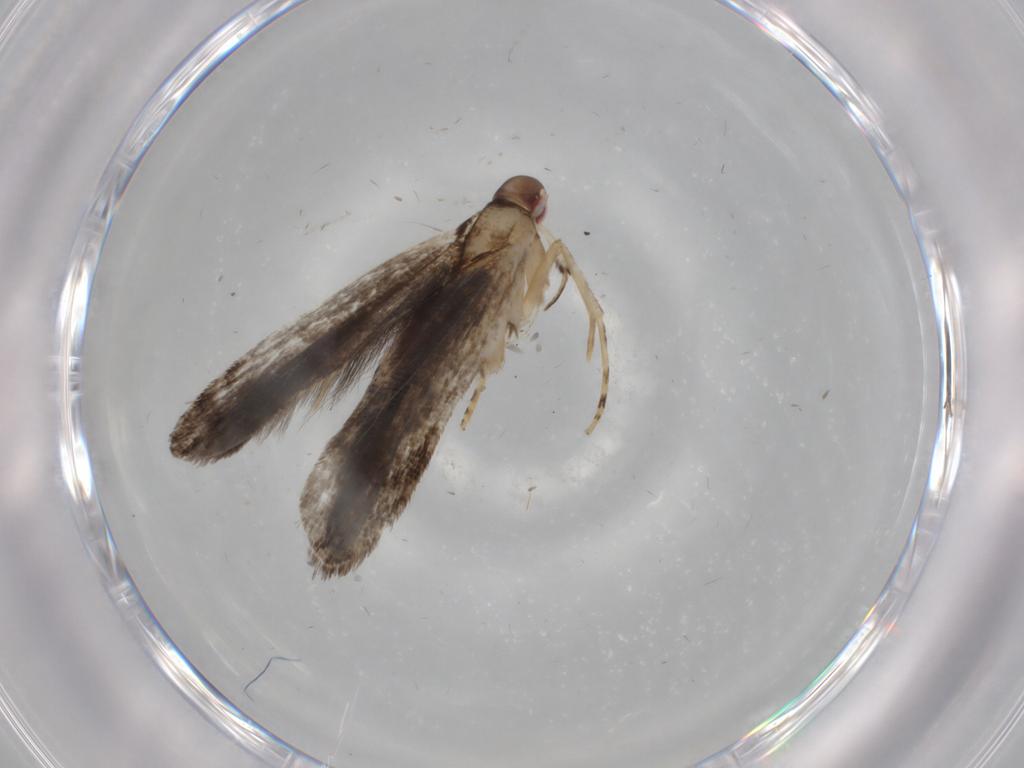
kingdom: Animalia
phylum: Arthropoda
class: Insecta
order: Lepidoptera
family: Gelechiidae
